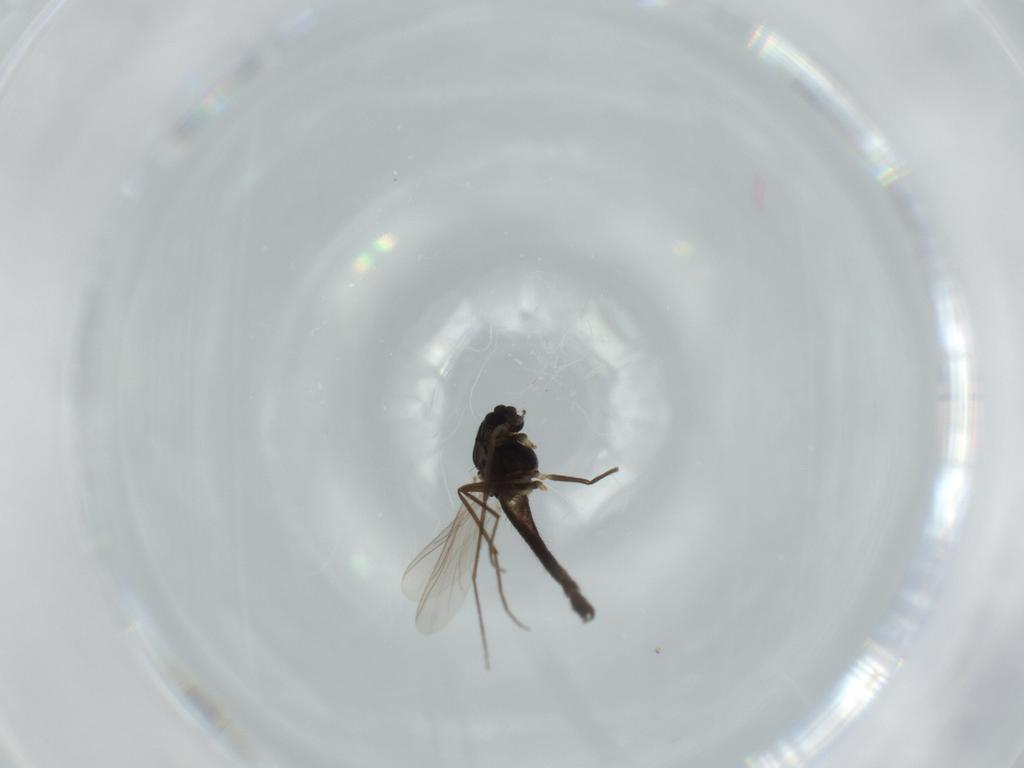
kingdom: Animalia
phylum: Arthropoda
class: Insecta
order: Diptera
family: Chironomidae
